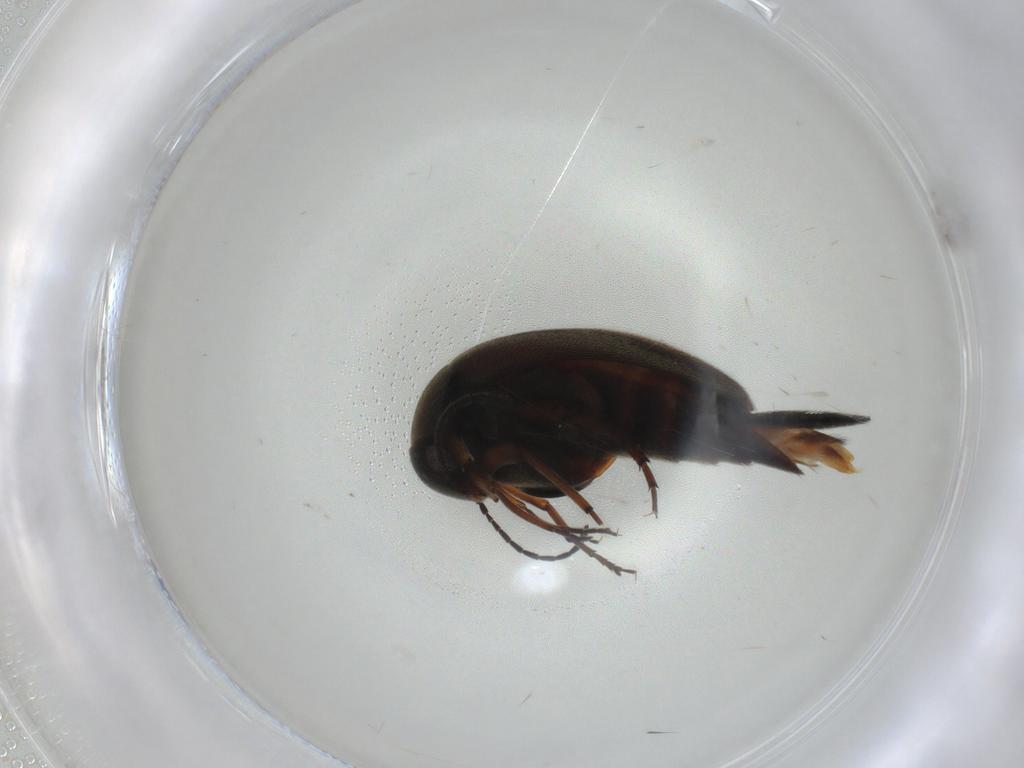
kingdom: Animalia
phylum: Arthropoda
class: Insecta
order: Coleoptera
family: Mordellidae
